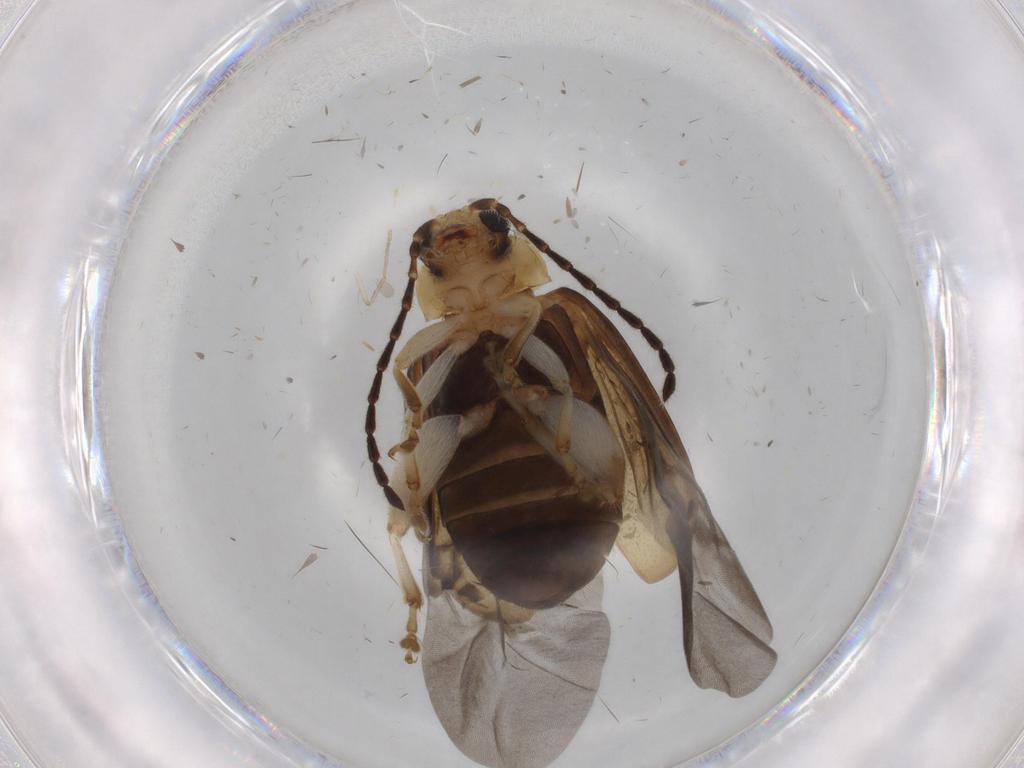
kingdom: Animalia
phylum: Arthropoda
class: Insecta
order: Coleoptera
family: Chrysomelidae
